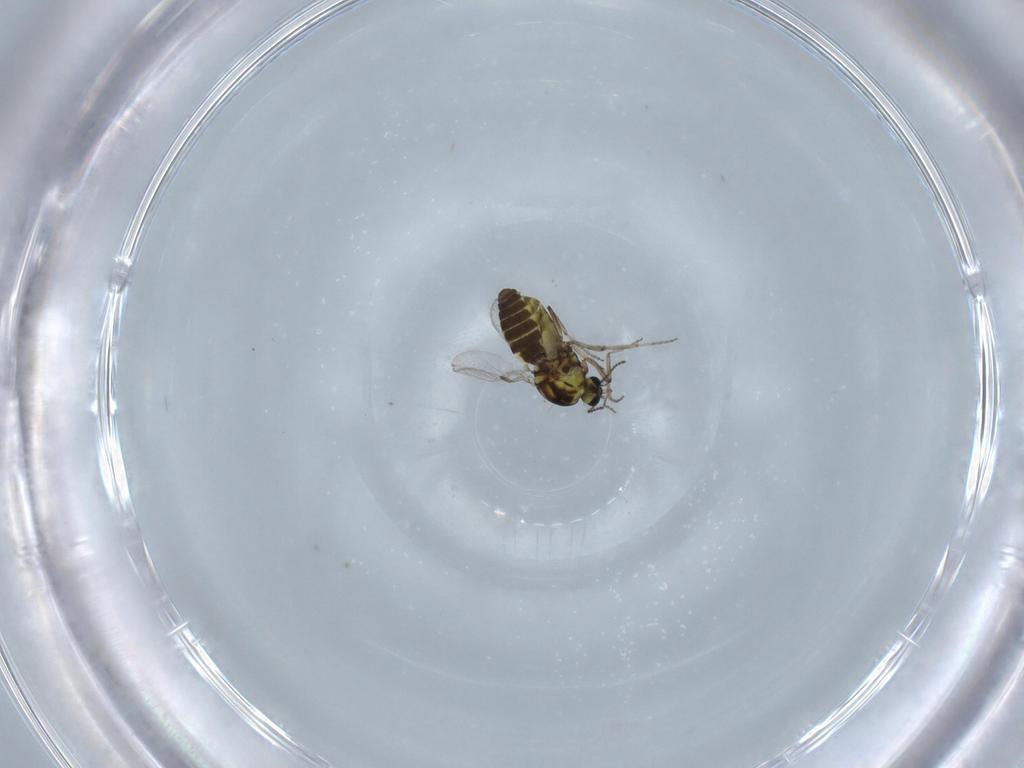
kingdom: Animalia
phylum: Arthropoda
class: Insecta
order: Diptera
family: Ceratopogonidae
